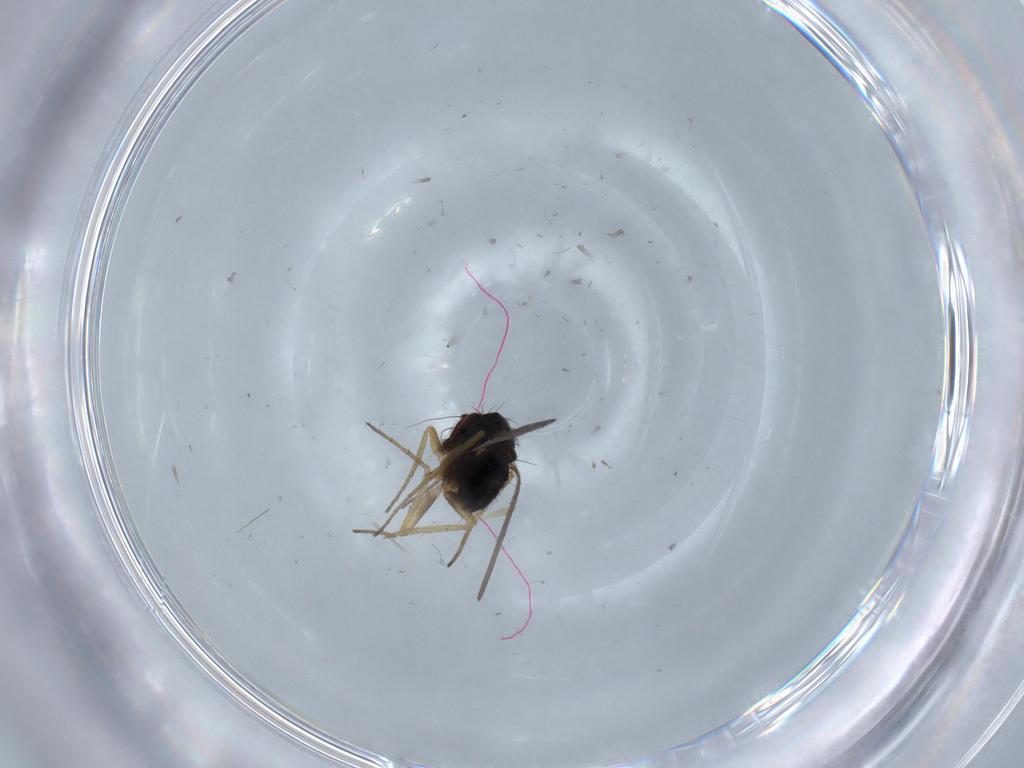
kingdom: Animalia
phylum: Arthropoda
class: Insecta
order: Diptera
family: Dolichopodidae
